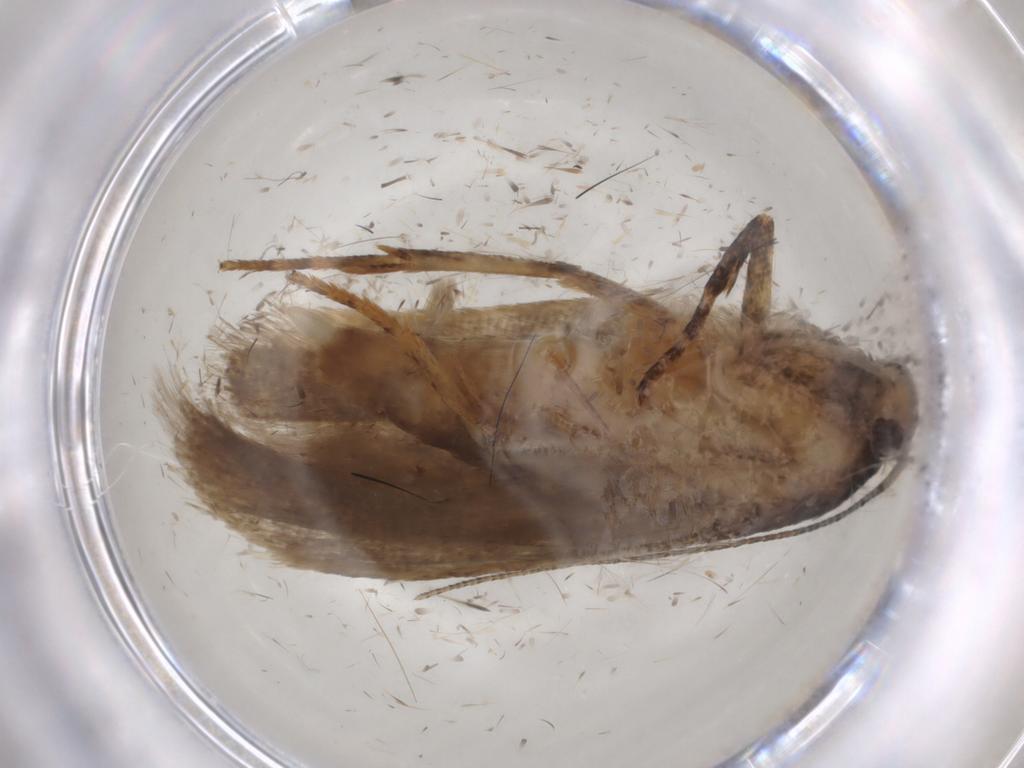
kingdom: Animalia
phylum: Arthropoda
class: Insecta
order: Lepidoptera
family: Gelechiidae
